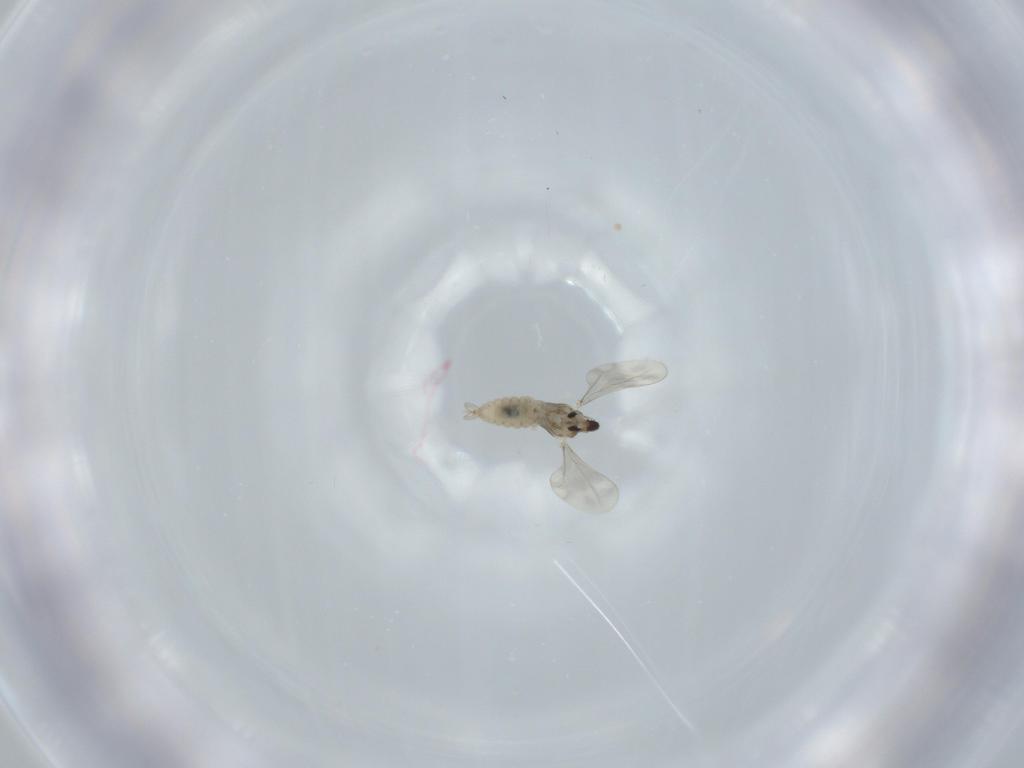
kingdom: Animalia
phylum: Arthropoda
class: Insecta
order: Diptera
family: Sciaridae
